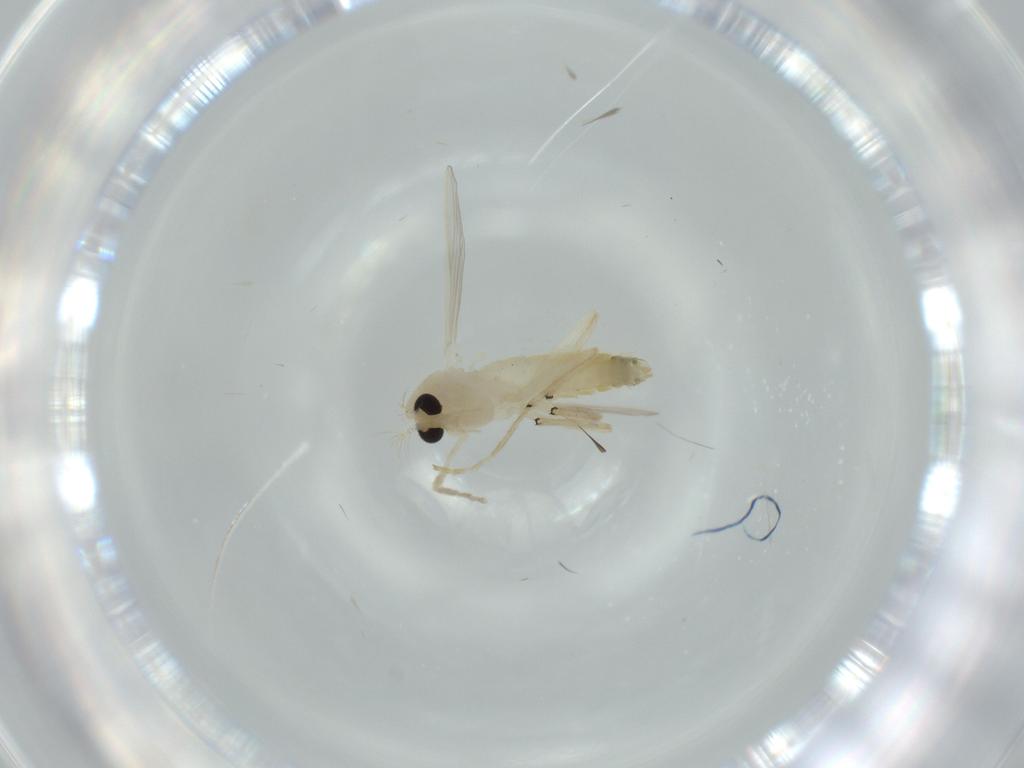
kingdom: Animalia
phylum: Arthropoda
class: Insecta
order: Diptera
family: Chironomidae
